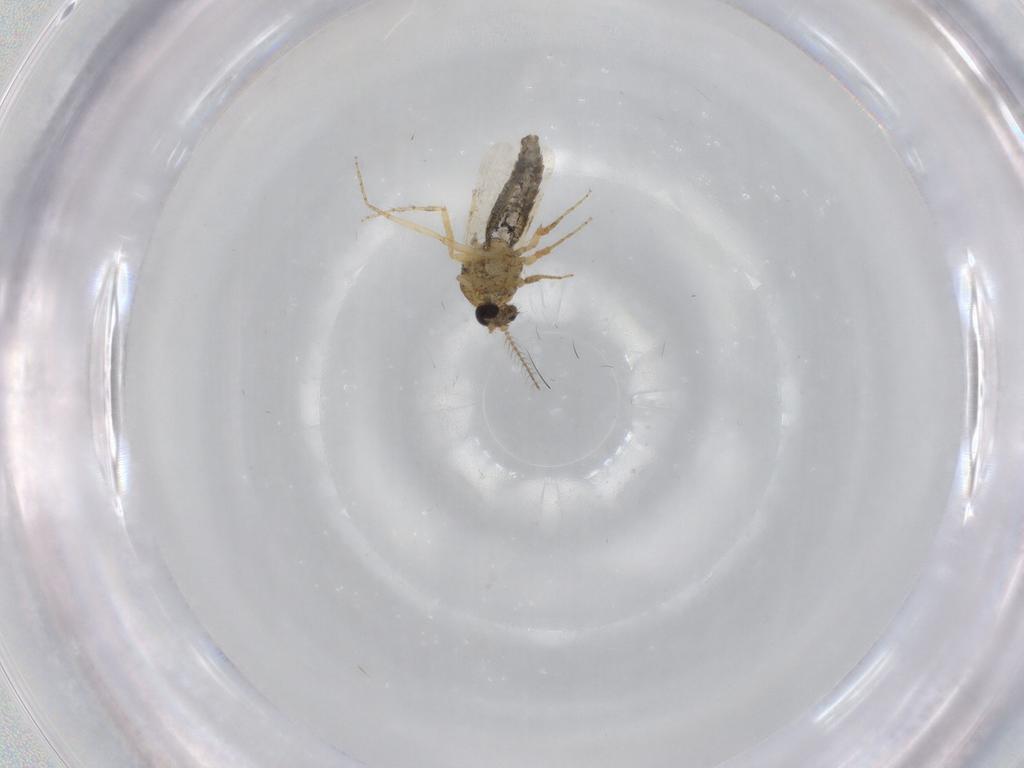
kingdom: Animalia
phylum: Arthropoda
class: Insecta
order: Diptera
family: Ceratopogonidae
